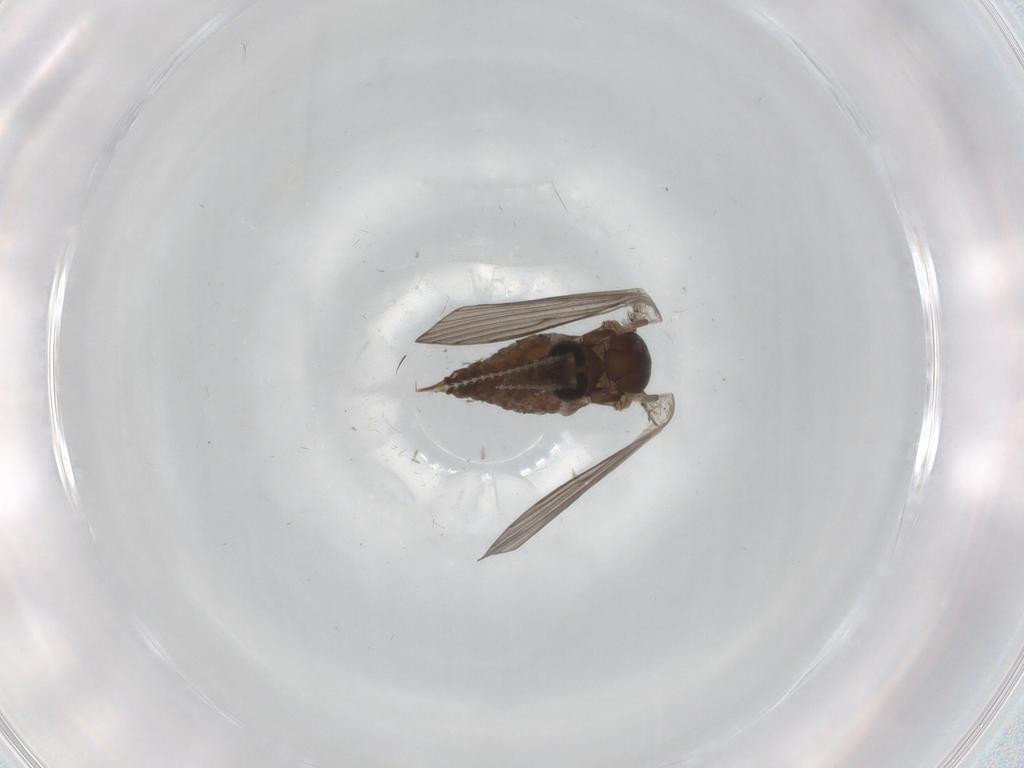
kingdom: Animalia
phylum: Arthropoda
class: Insecta
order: Diptera
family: Psychodidae
